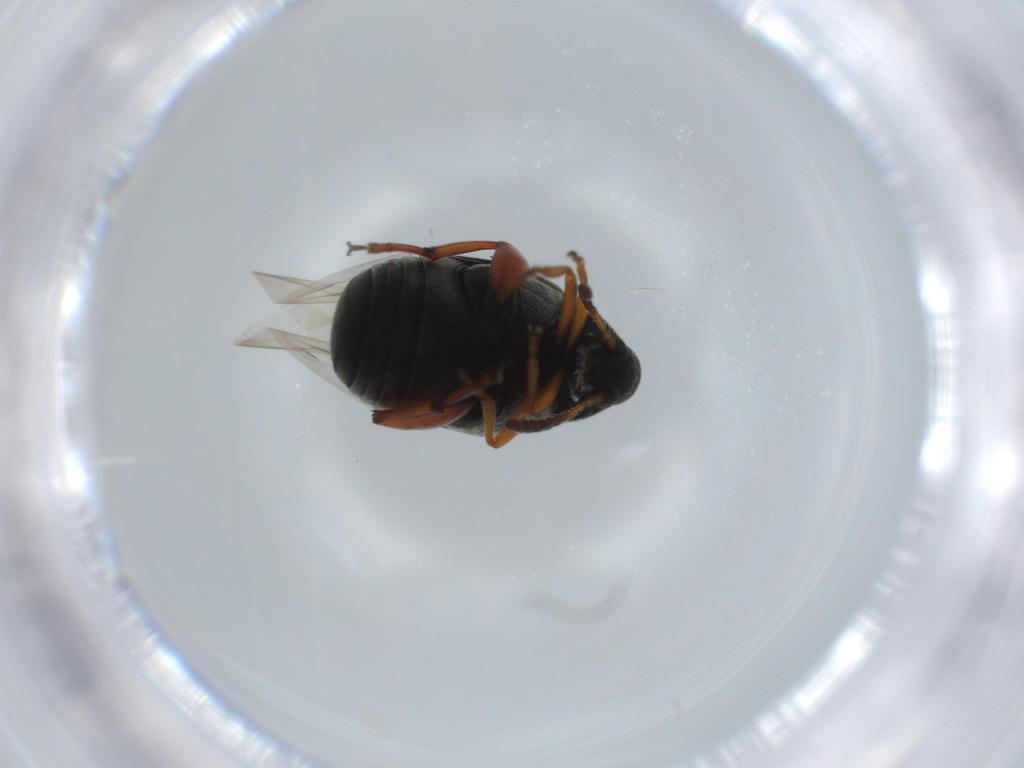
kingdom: Animalia
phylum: Arthropoda
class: Insecta
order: Coleoptera
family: Chrysomelidae
